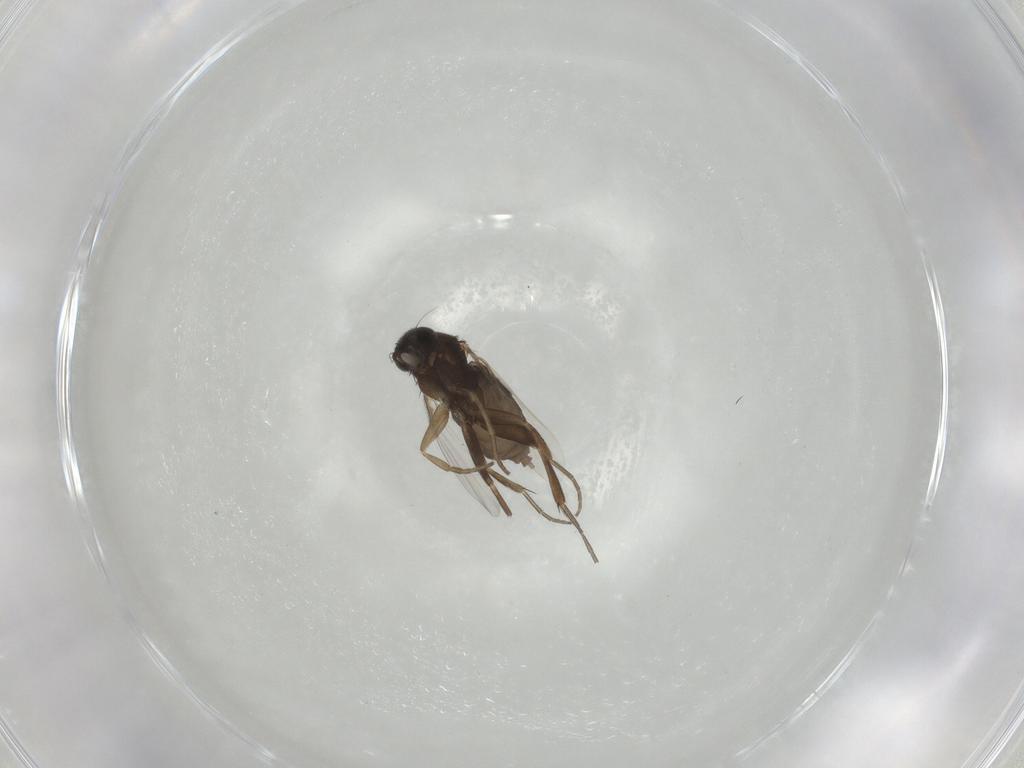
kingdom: Animalia
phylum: Arthropoda
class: Insecta
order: Diptera
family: Phoridae
